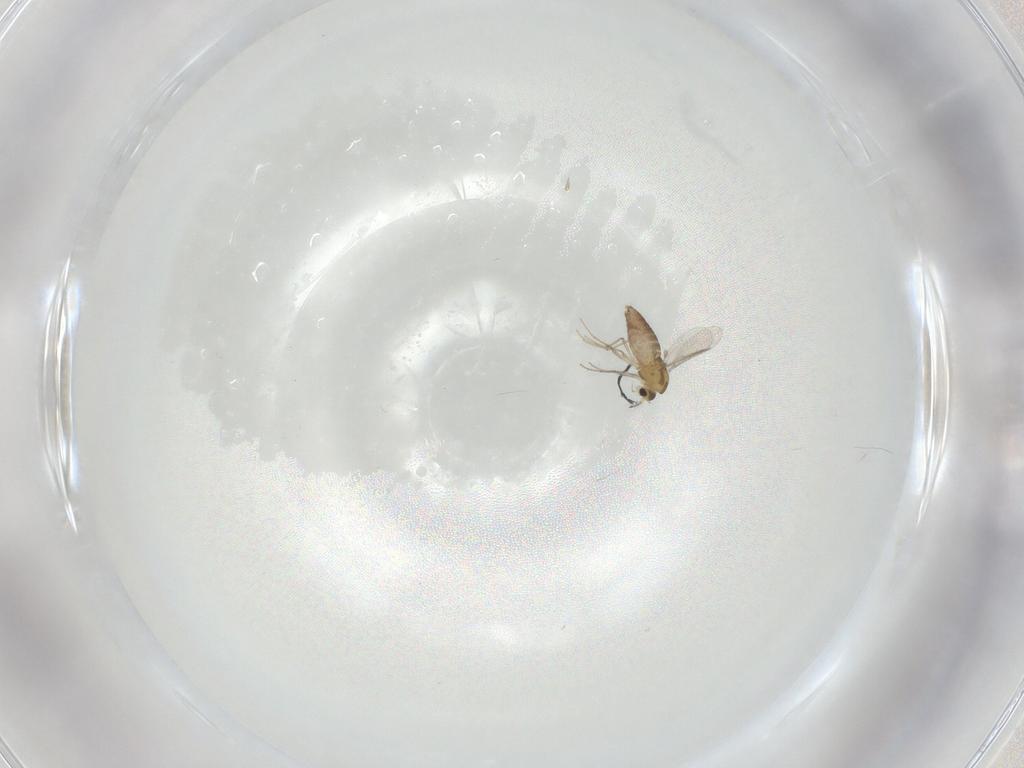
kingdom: Animalia
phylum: Arthropoda
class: Insecta
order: Diptera
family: Chironomidae
